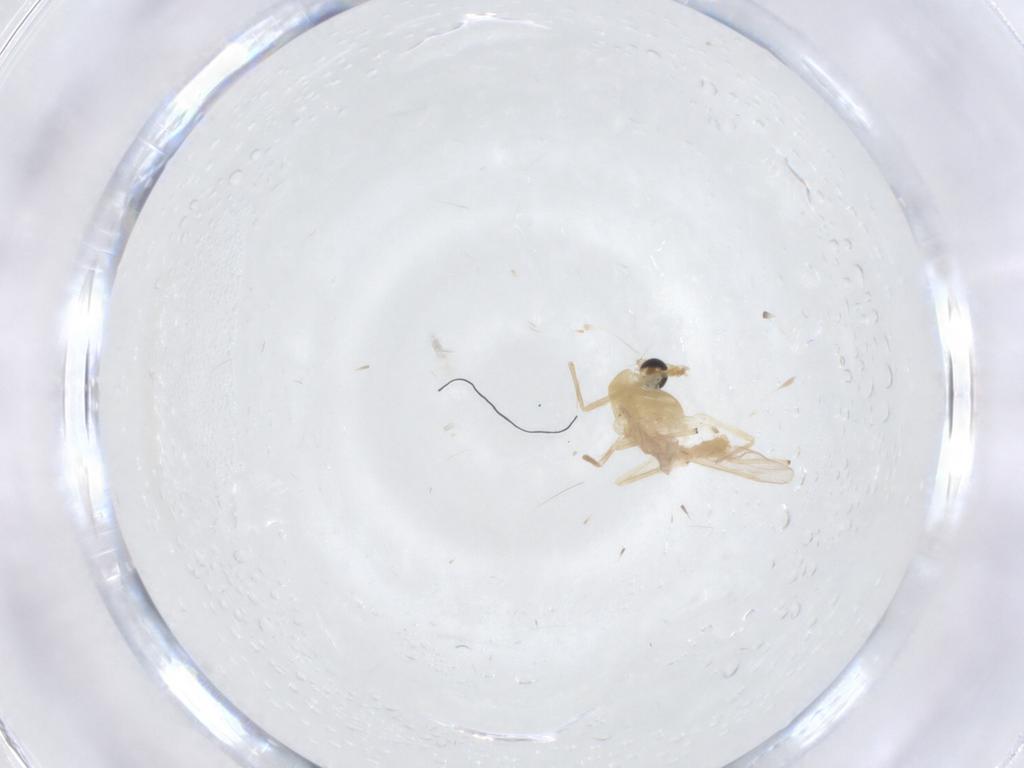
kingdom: Animalia
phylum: Arthropoda
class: Insecta
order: Diptera
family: Chironomidae
